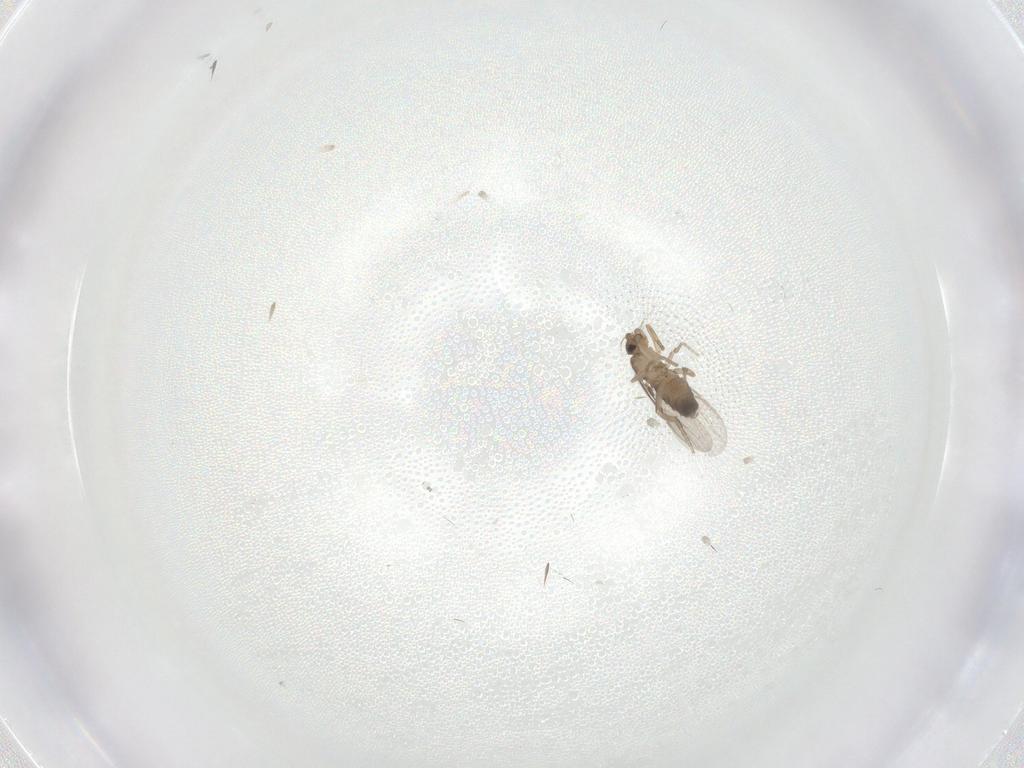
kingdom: Animalia
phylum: Arthropoda
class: Insecta
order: Diptera
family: Phoridae
